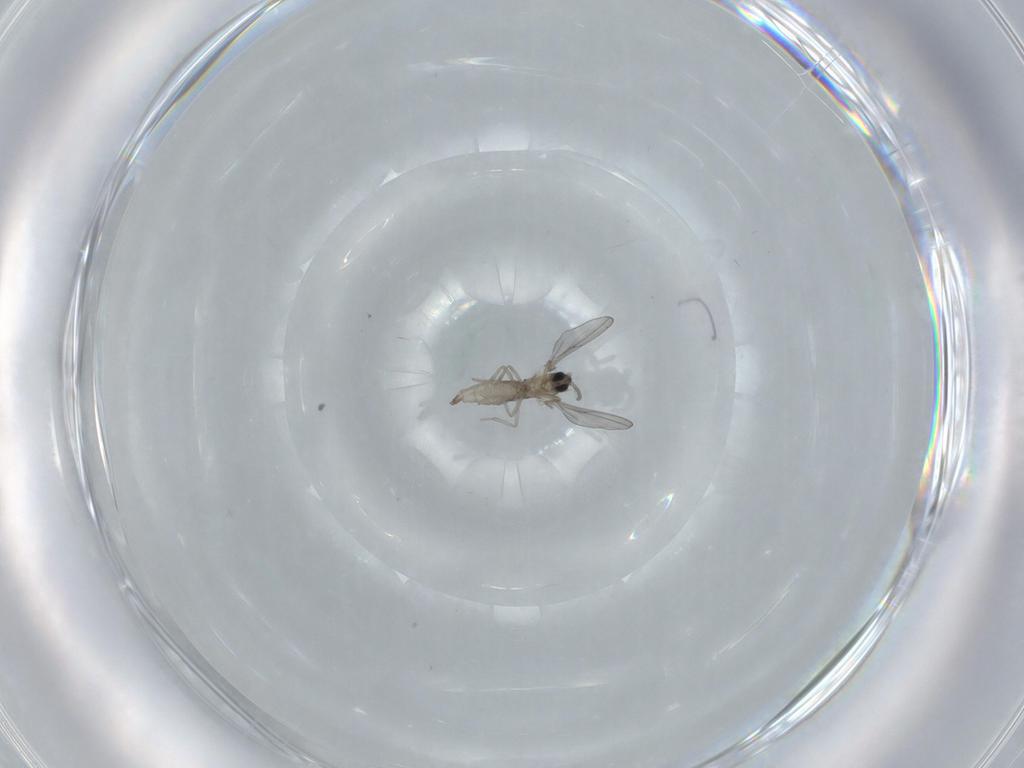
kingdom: Animalia
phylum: Arthropoda
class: Insecta
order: Diptera
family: Cecidomyiidae
